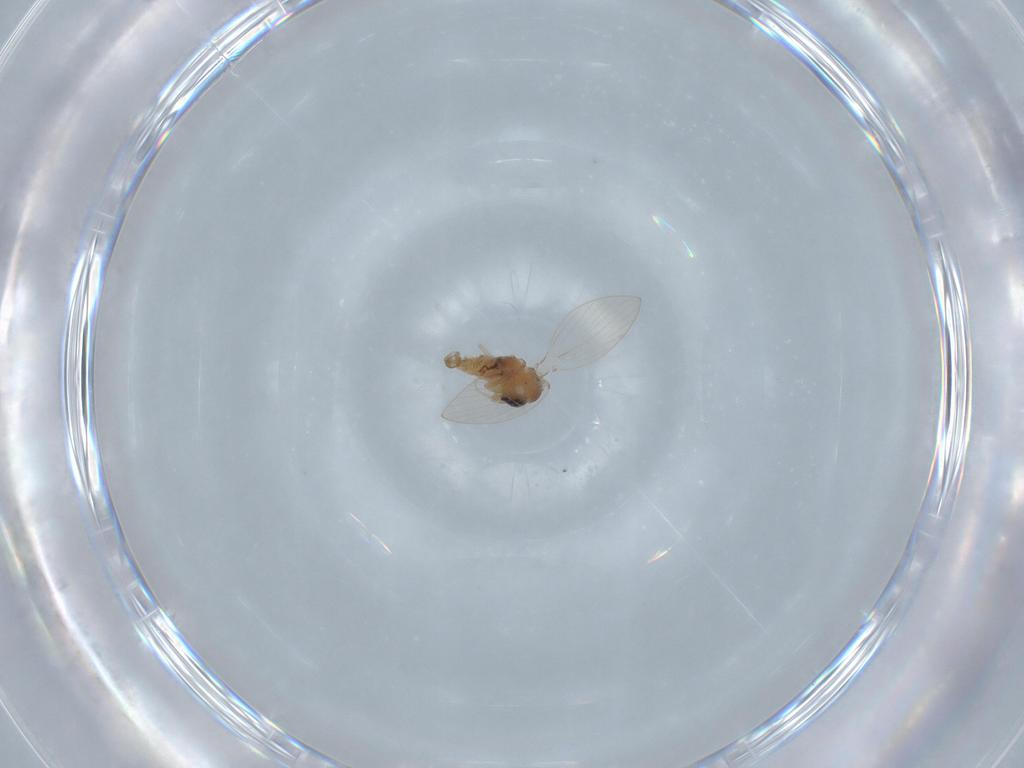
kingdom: Animalia
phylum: Arthropoda
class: Insecta
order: Diptera
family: Psychodidae
